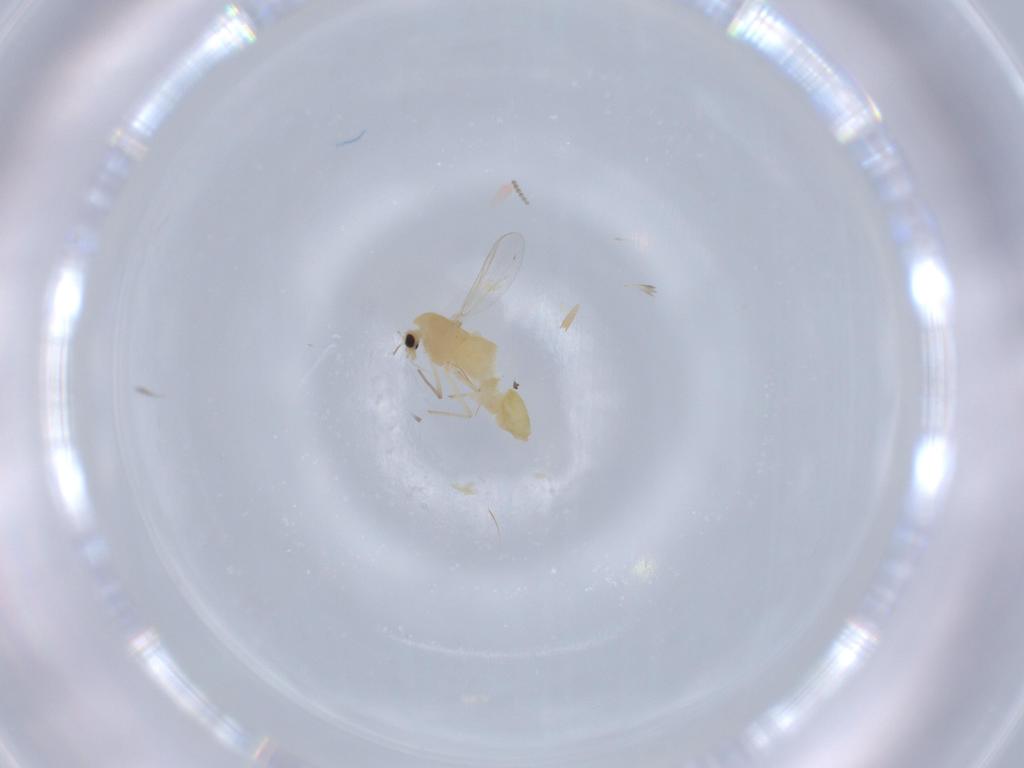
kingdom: Animalia
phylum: Arthropoda
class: Insecta
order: Diptera
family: Chironomidae
